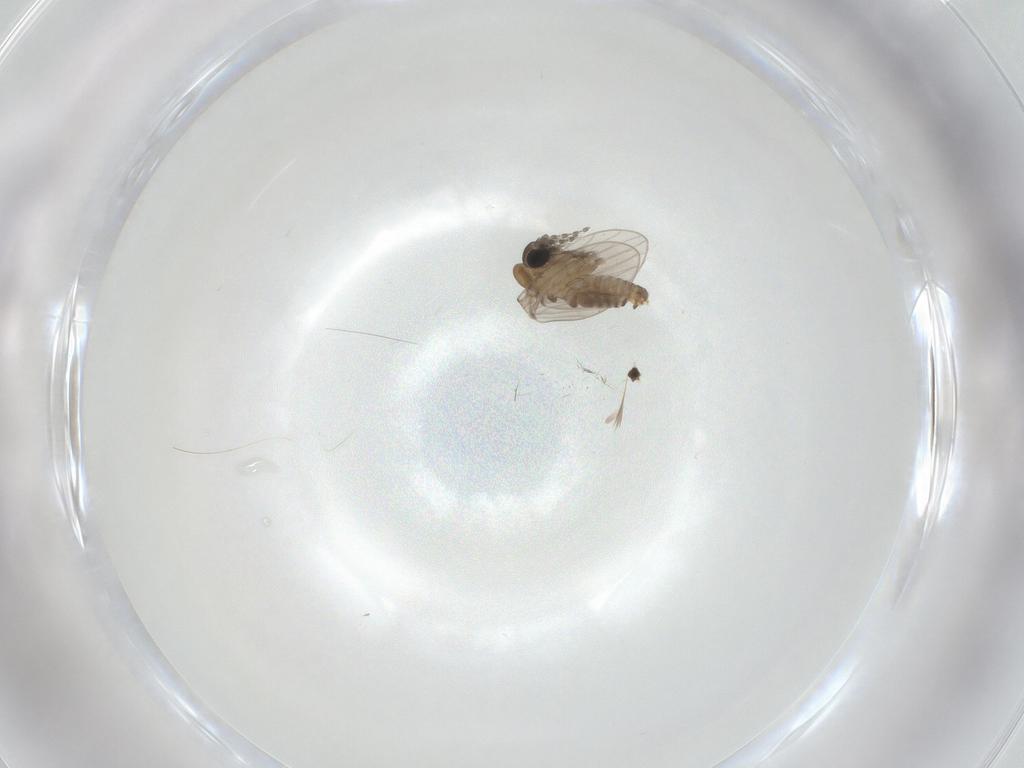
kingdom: Animalia
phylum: Arthropoda
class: Insecta
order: Diptera
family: Psychodidae
